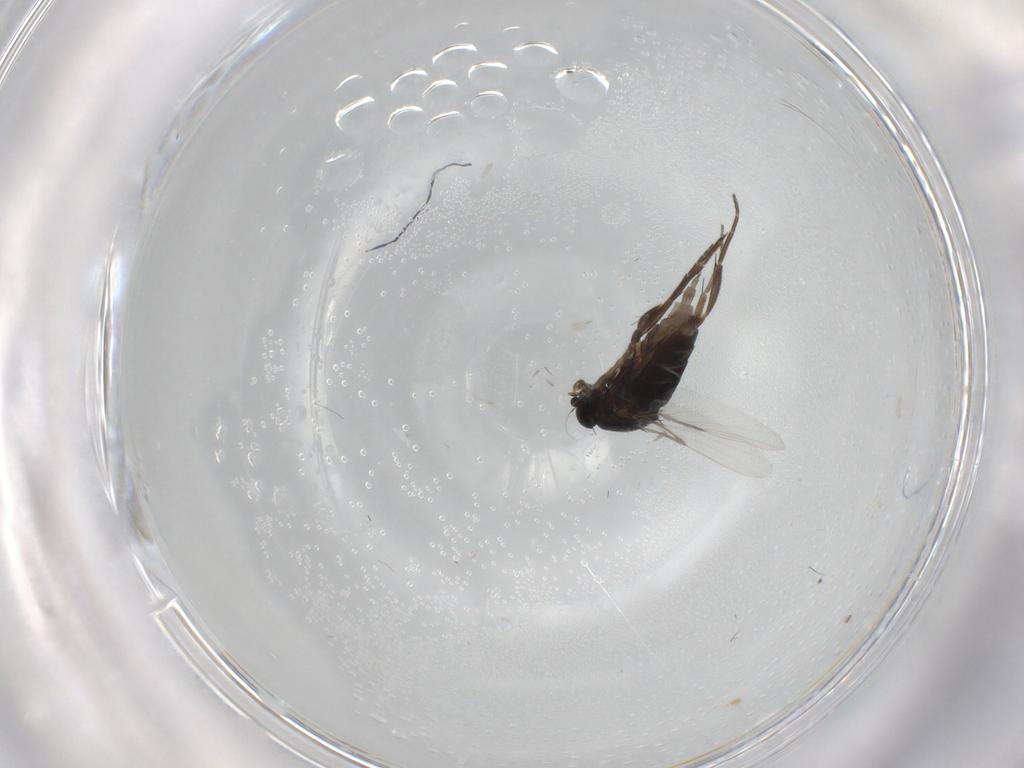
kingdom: Animalia
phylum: Arthropoda
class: Insecta
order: Diptera
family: Phoridae
